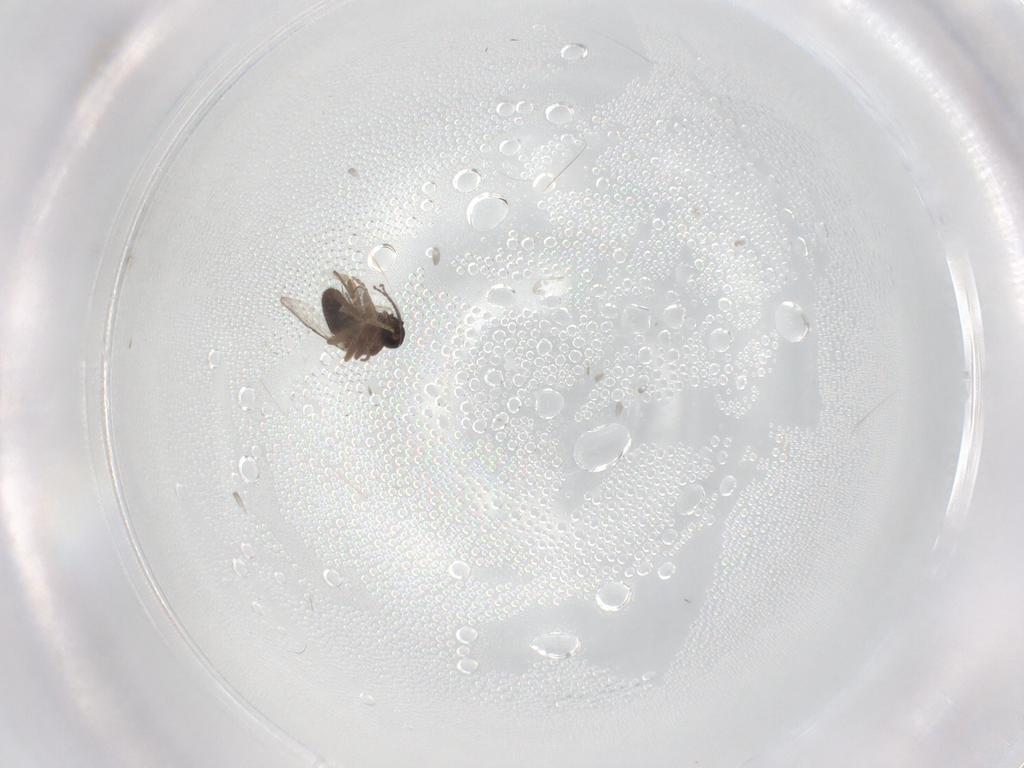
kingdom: Animalia
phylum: Arthropoda
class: Insecta
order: Diptera
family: Ceratopogonidae
